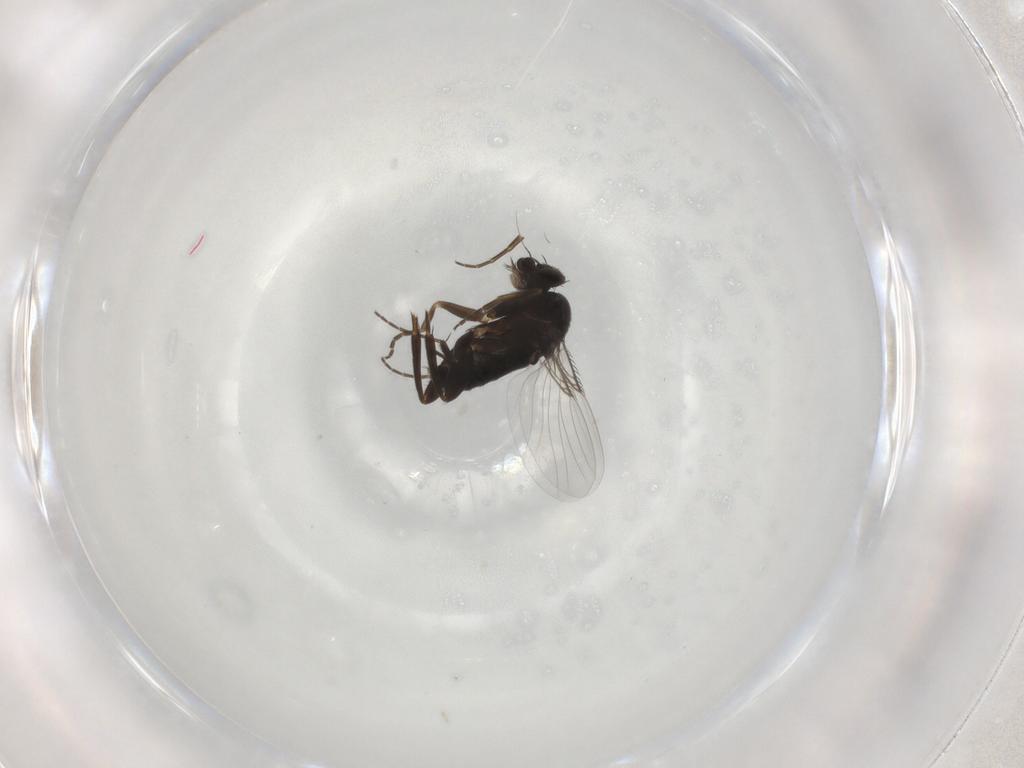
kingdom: Animalia
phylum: Arthropoda
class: Insecta
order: Diptera
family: Phoridae
